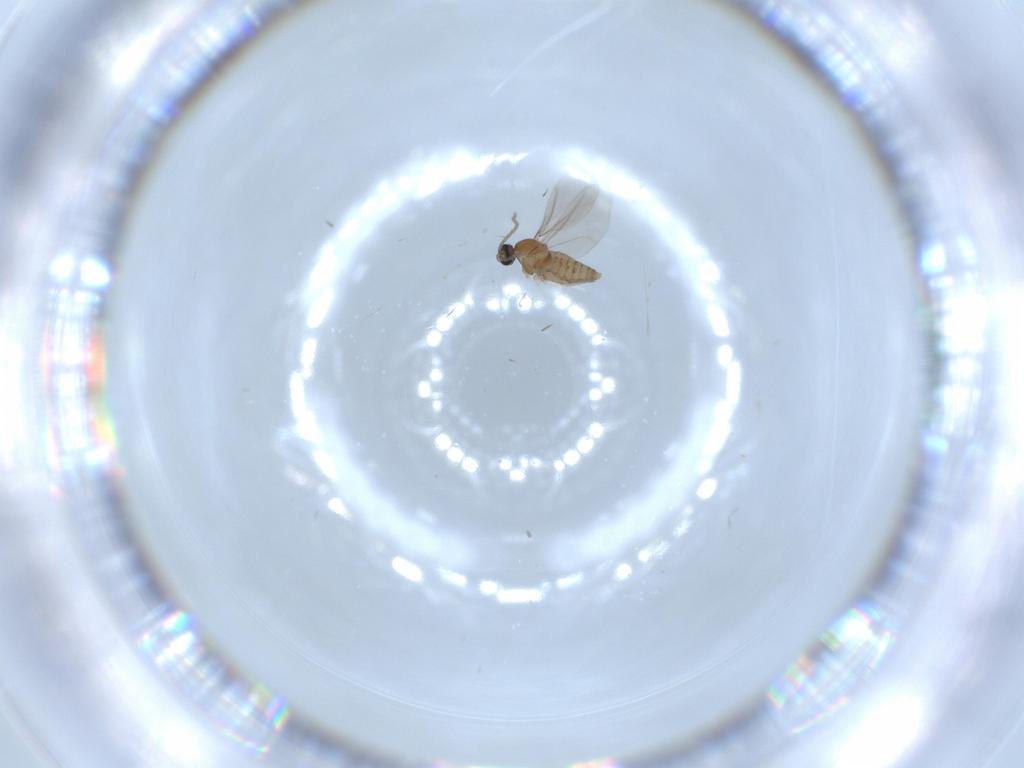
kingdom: Animalia
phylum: Arthropoda
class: Insecta
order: Diptera
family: Cecidomyiidae
